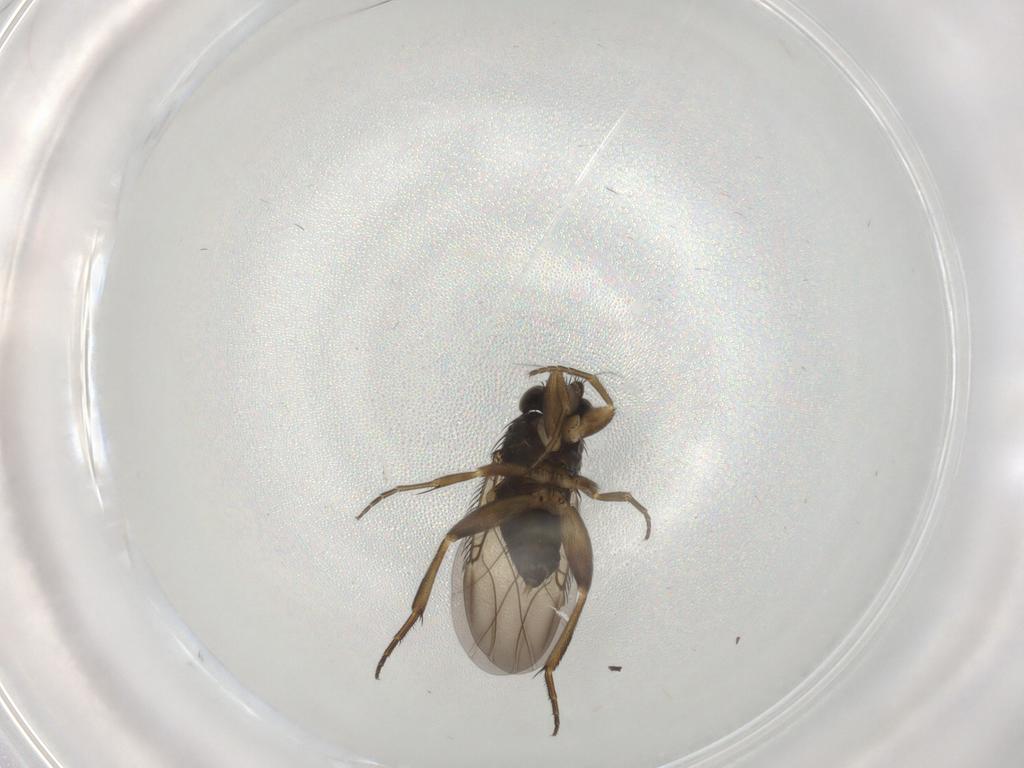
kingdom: Animalia
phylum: Arthropoda
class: Insecta
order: Diptera
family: Phoridae
